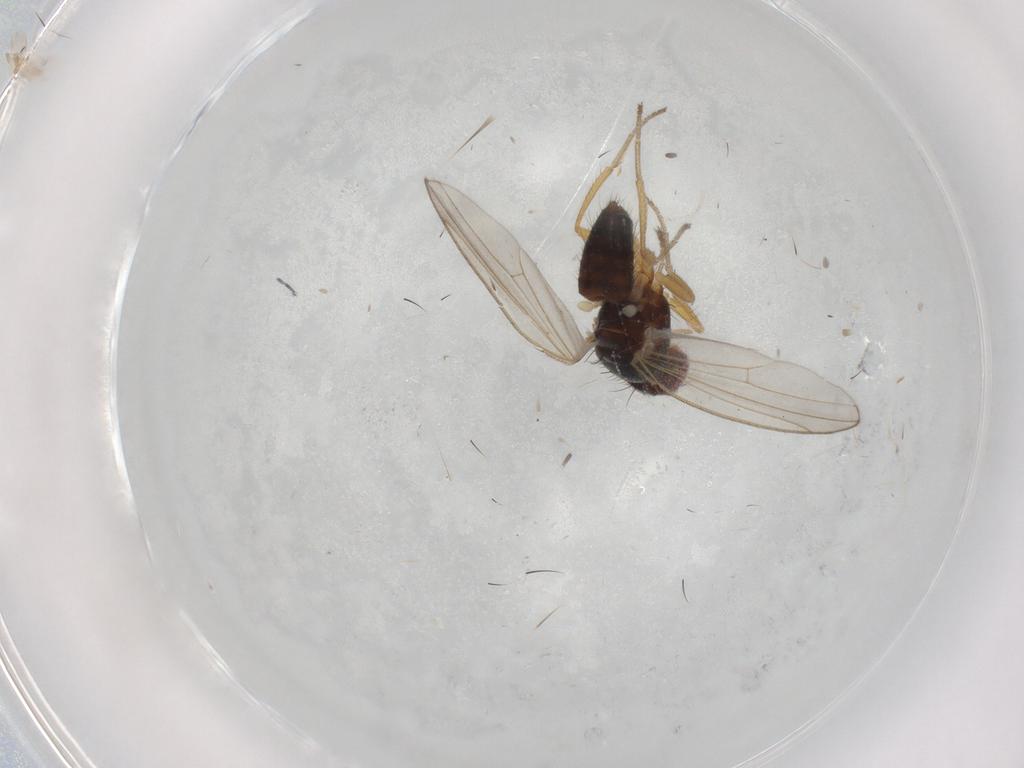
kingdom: Animalia
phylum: Arthropoda
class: Insecta
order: Diptera
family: Drosophilidae
